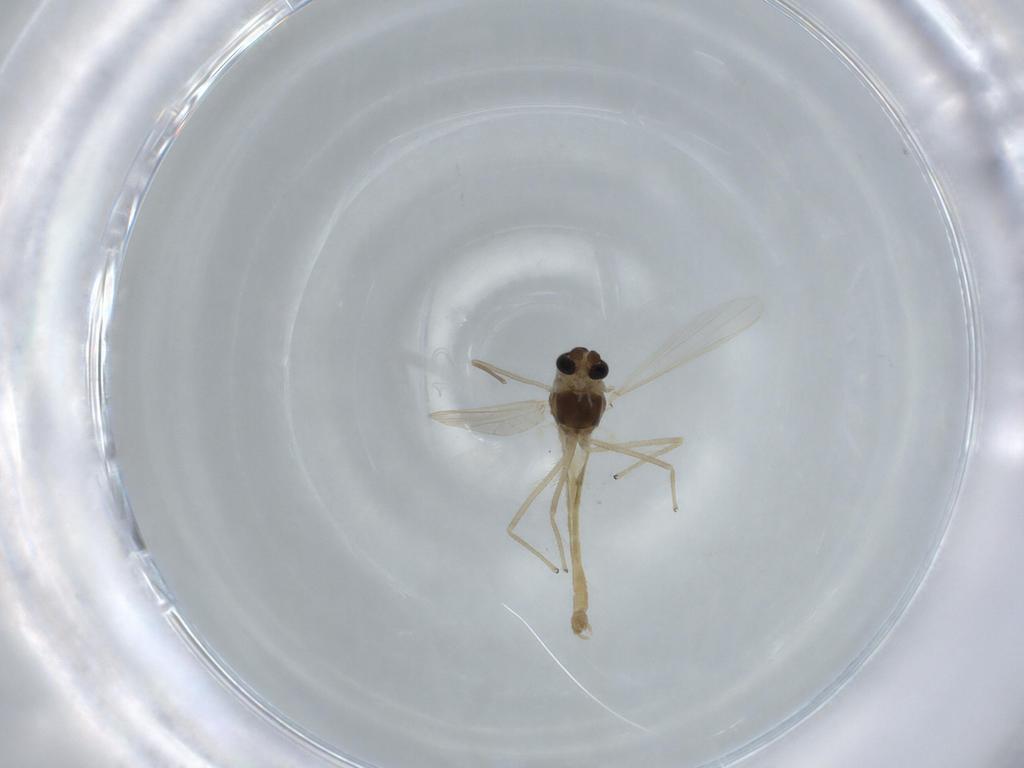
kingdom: Animalia
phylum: Arthropoda
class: Insecta
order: Diptera
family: Chironomidae
